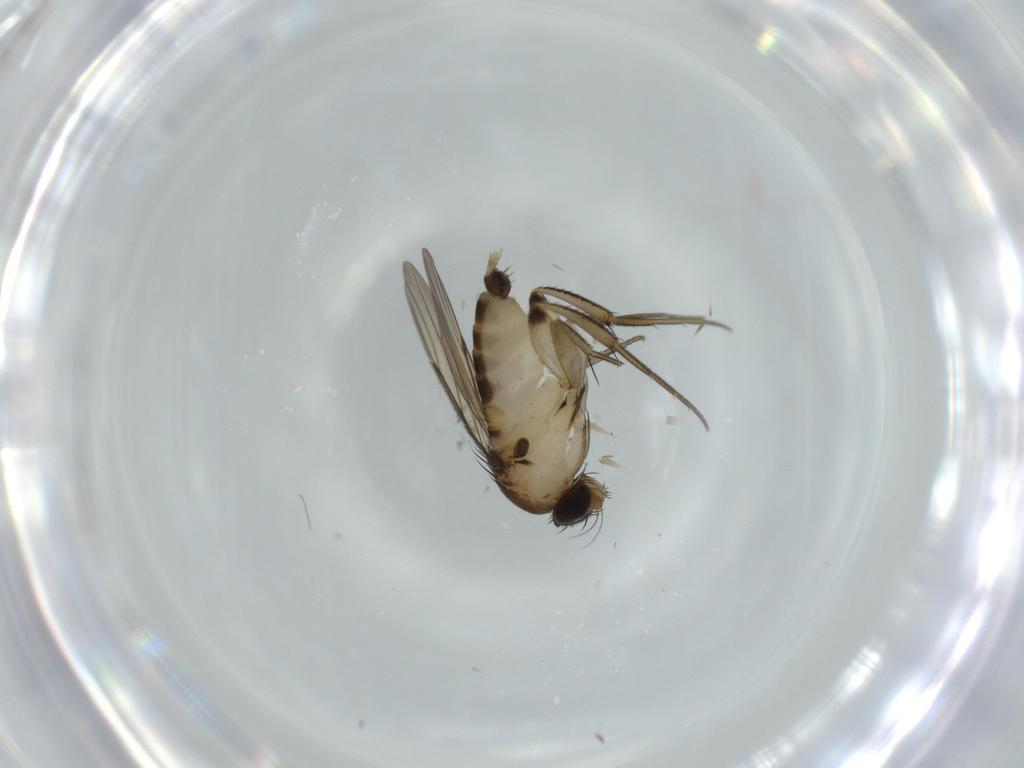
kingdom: Animalia
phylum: Arthropoda
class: Insecta
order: Diptera
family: Phoridae
